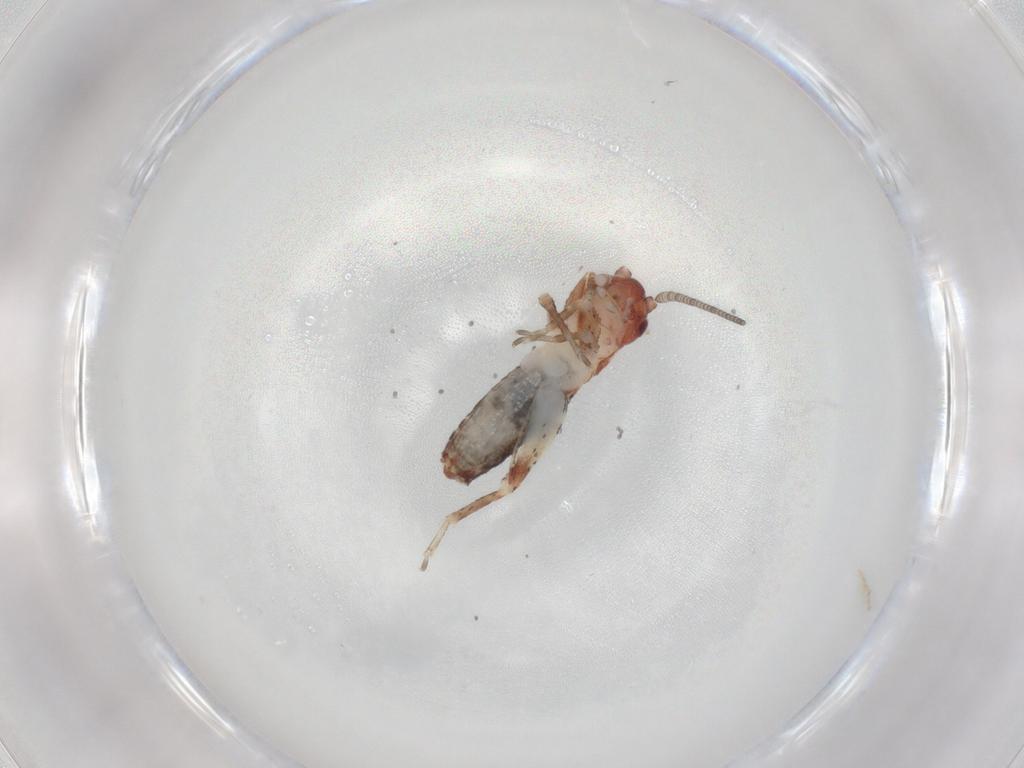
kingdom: Animalia
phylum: Arthropoda
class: Insecta
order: Orthoptera
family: Mogoplistidae
